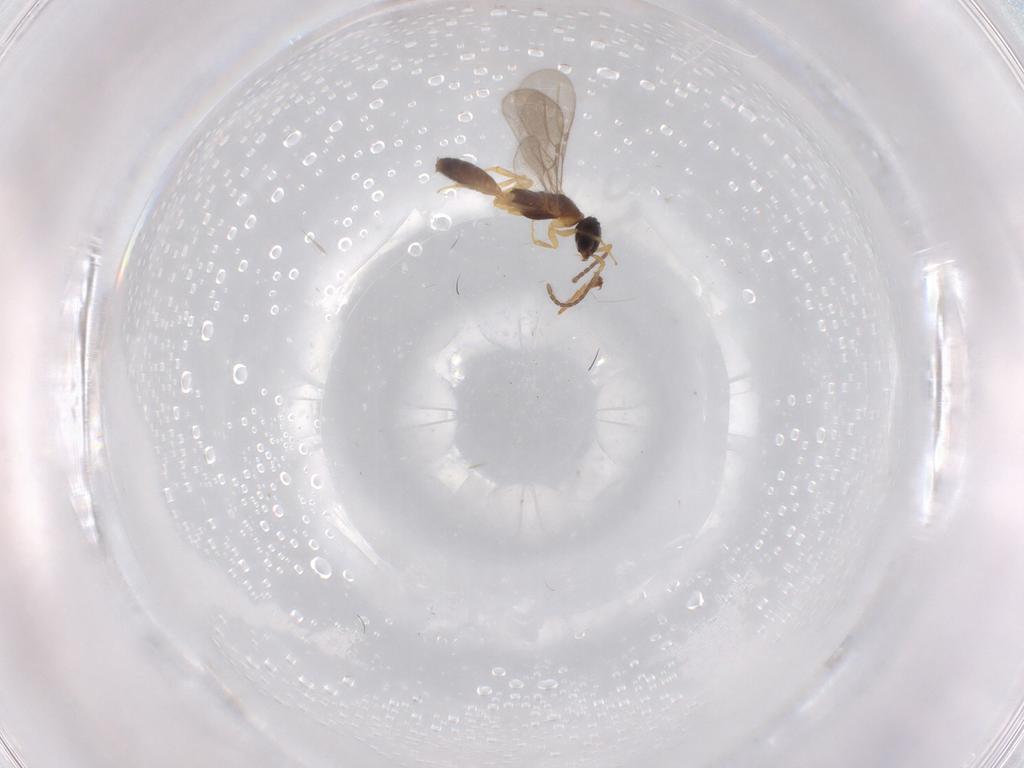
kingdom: Animalia
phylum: Arthropoda
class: Insecta
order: Hymenoptera
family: Formicidae
